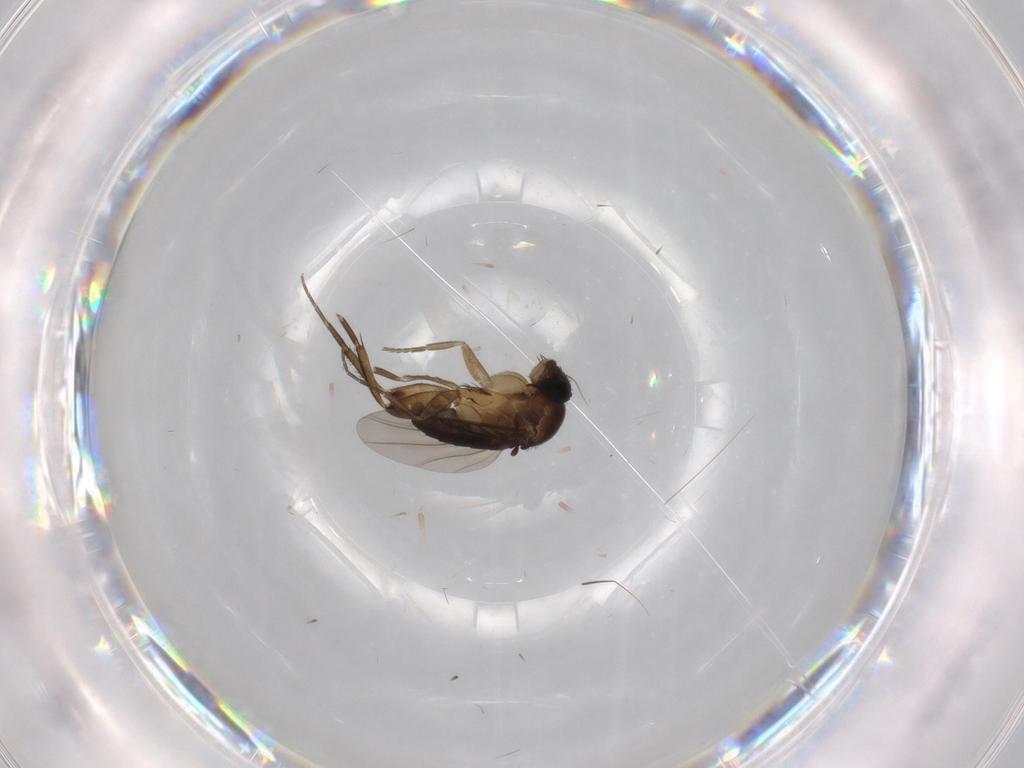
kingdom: Animalia
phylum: Arthropoda
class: Insecta
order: Diptera
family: Phoridae
